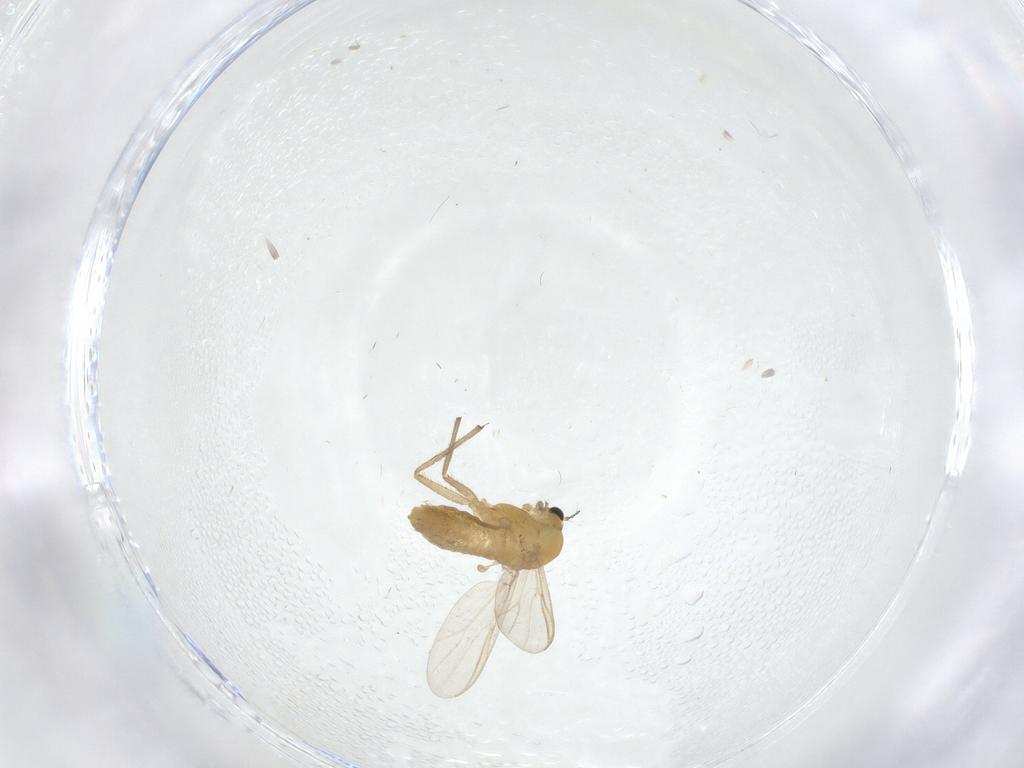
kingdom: Animalia
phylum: Arthropoda
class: Insecta
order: Diptera
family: Chironomidae
